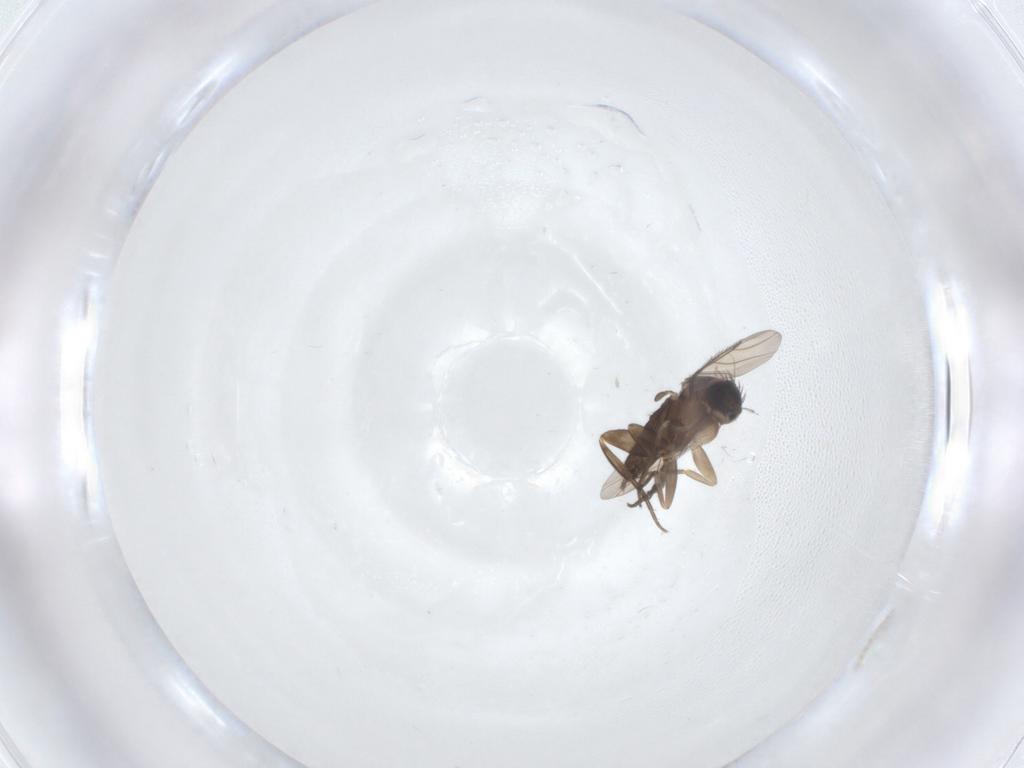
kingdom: Animalia
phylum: Arthropoda
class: Insecta
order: Diptera
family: Phoridae
